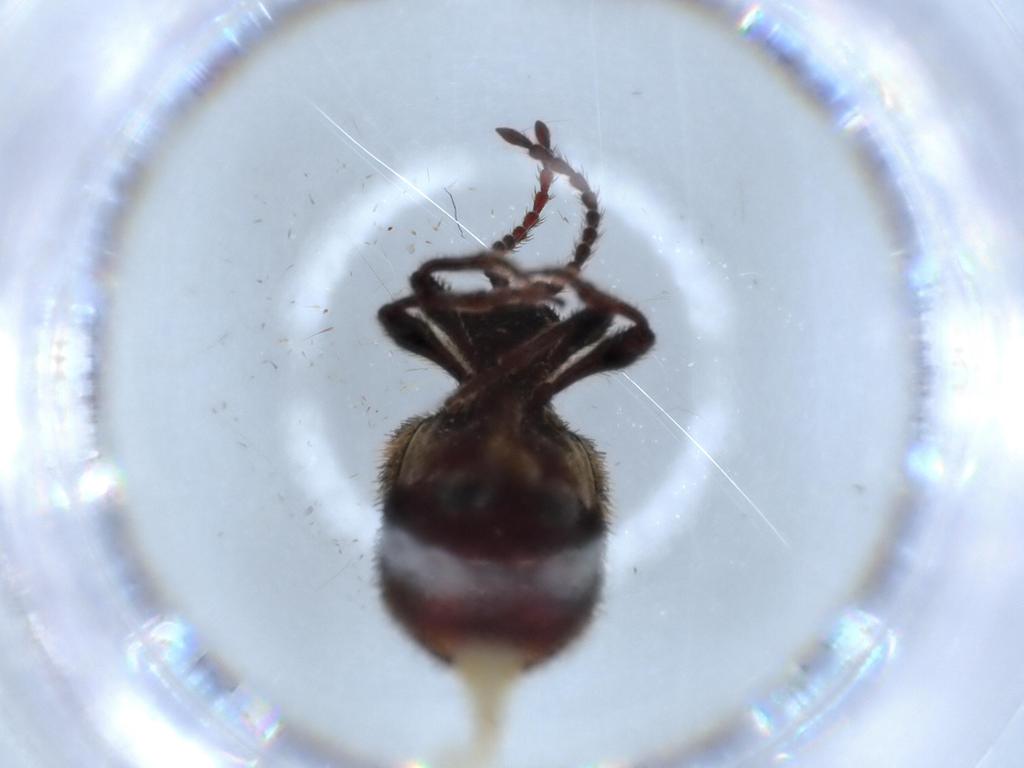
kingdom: Animalia
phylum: Arthropoda
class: Insecta
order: Coleoptera
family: Ptinidae
